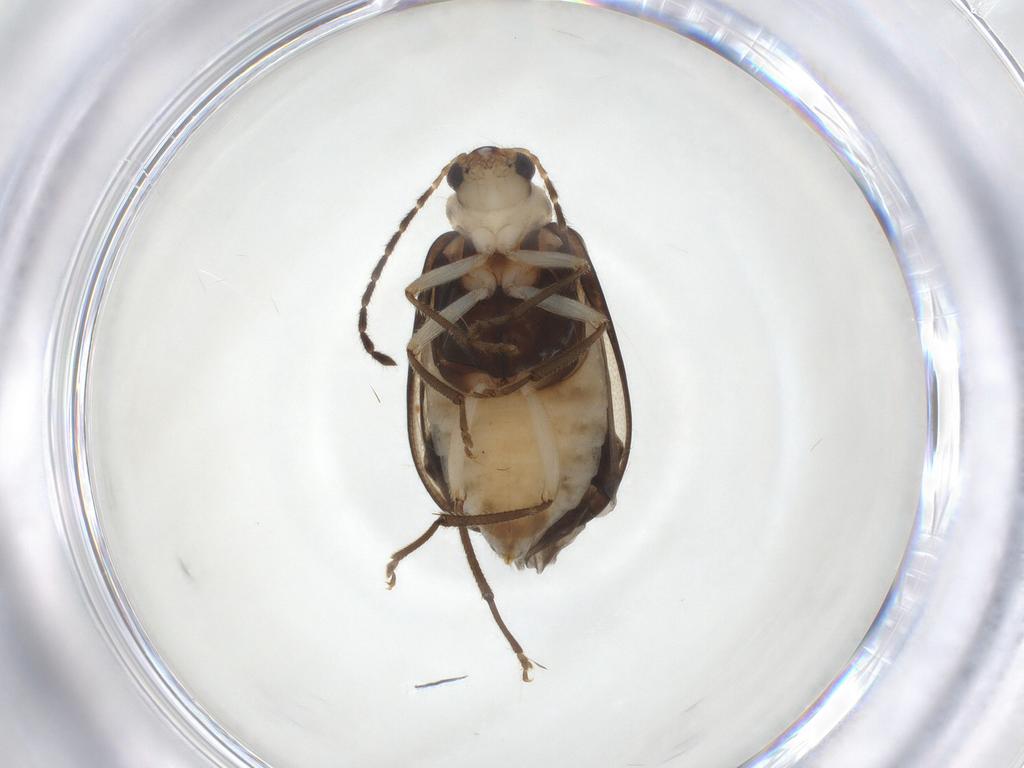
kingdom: Animalia
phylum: Arthropoda
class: Insecta
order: Coleoptera
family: Chrysomelidae
